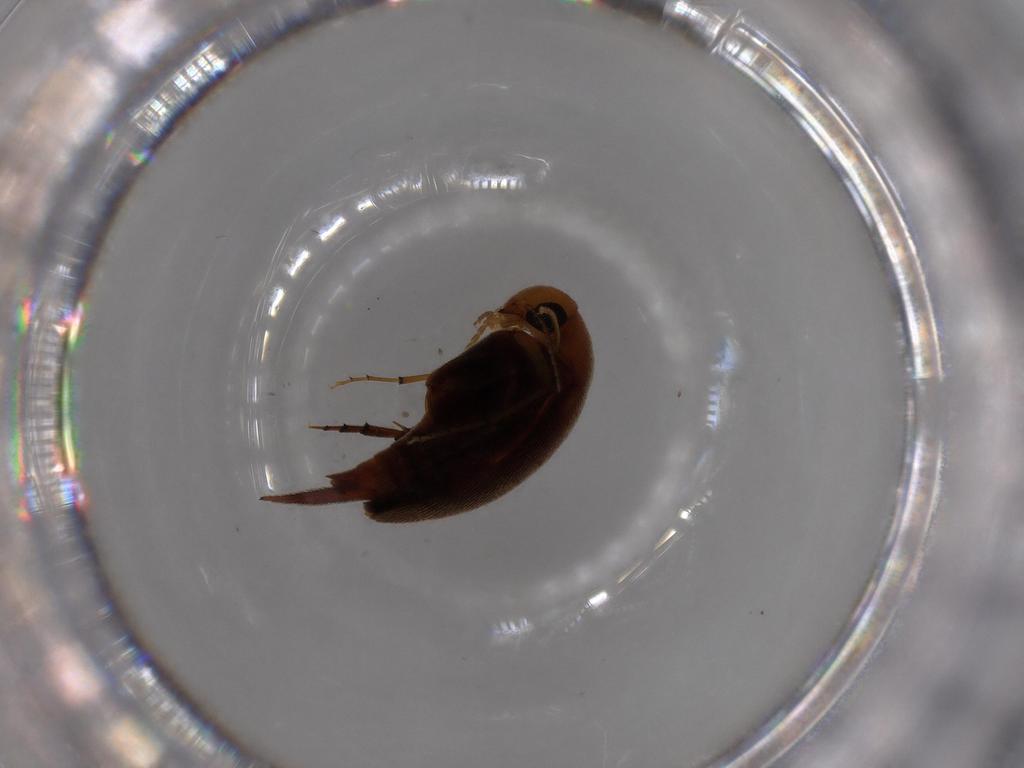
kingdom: Animalia
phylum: Arthropoda
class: Insecta
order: Coleoptera
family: Mordellidae
